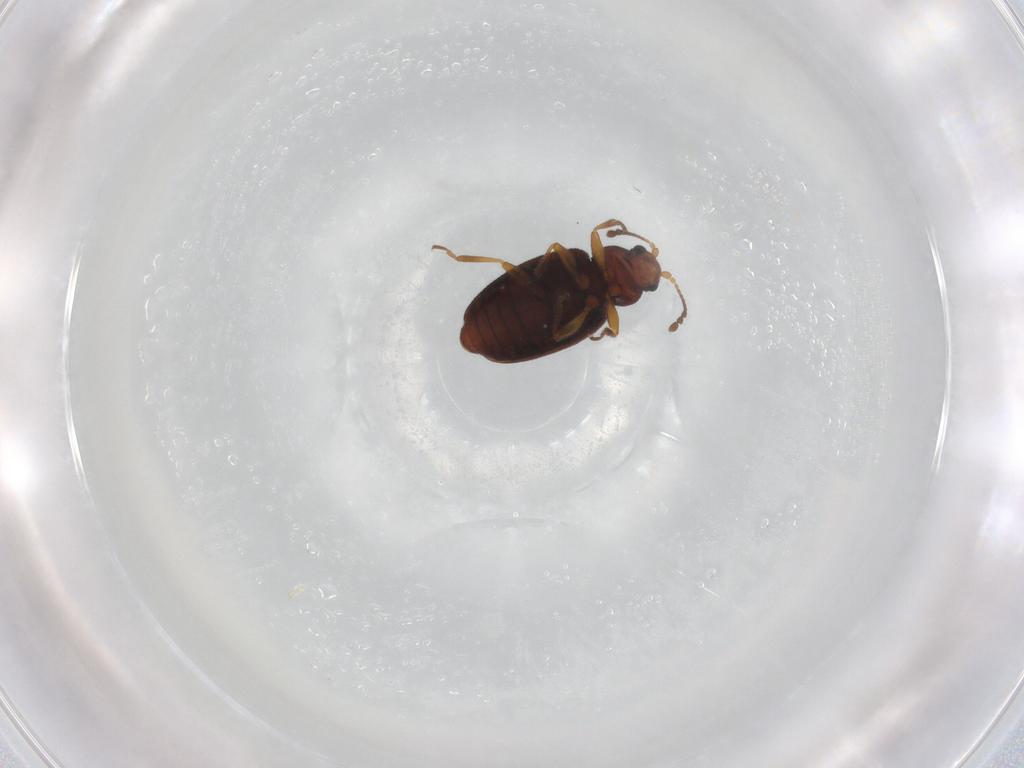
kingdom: Animalia
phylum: Arthropoda
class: Insecta
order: Coleoptera
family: Latridiidae
